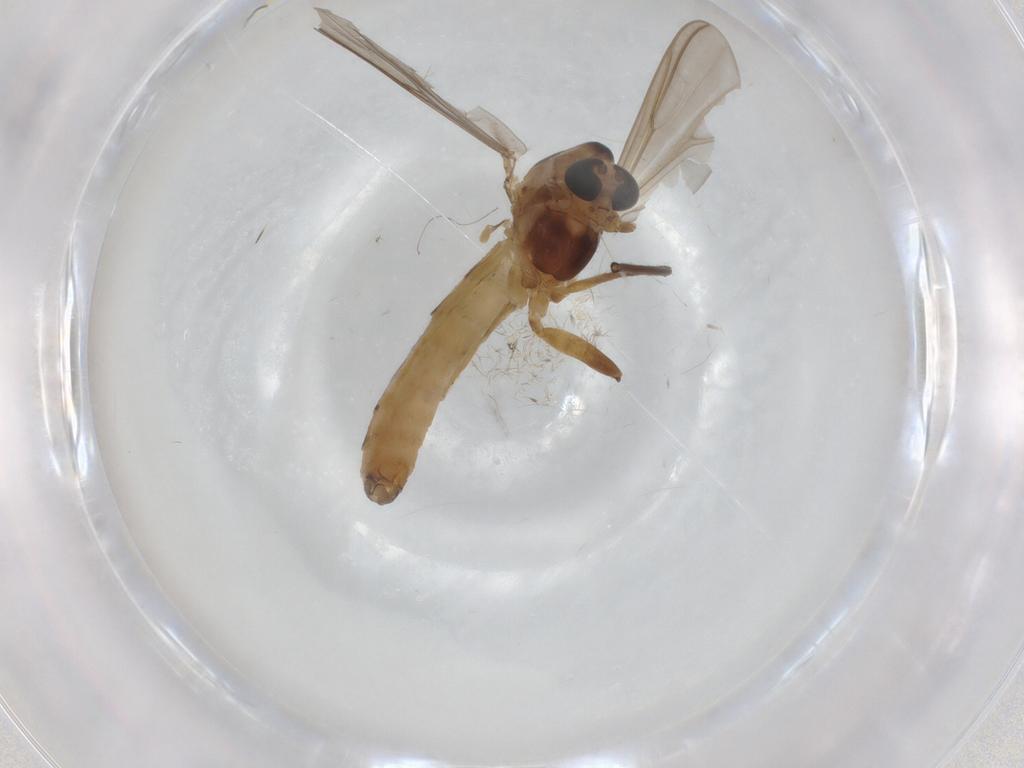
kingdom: Animalia
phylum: Arthropoda
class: Insecta
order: Diptera
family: Chironomidae
